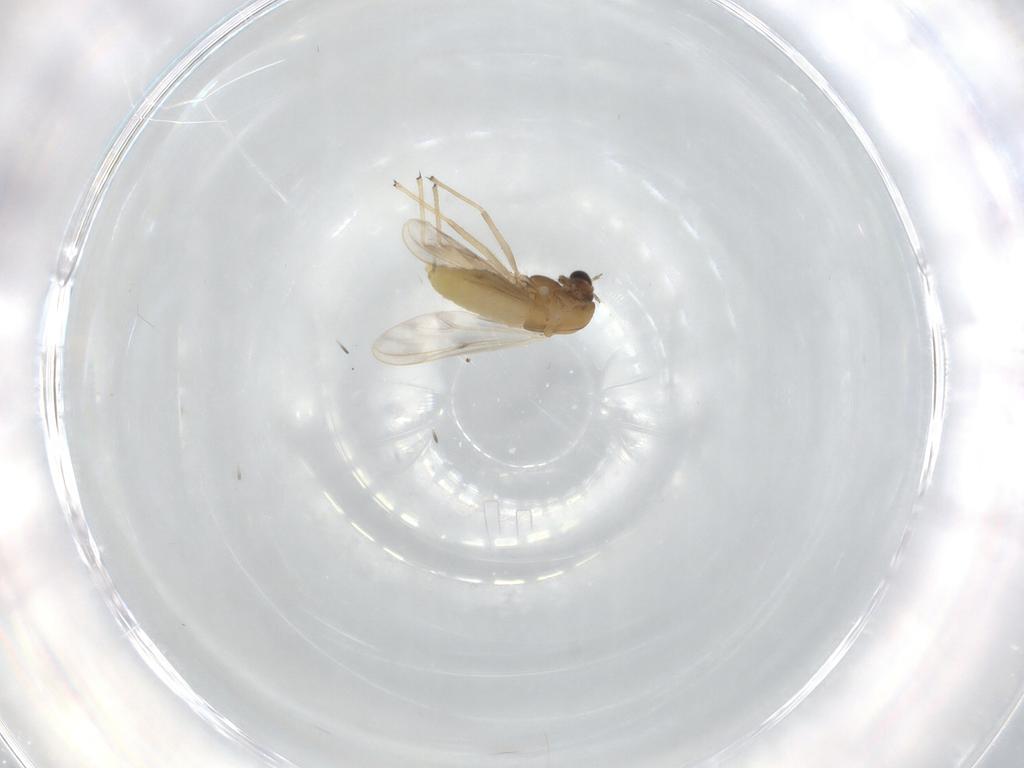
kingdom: Animalia
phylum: Arthropoda
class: Insecta
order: Diptera
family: Chironomidae
